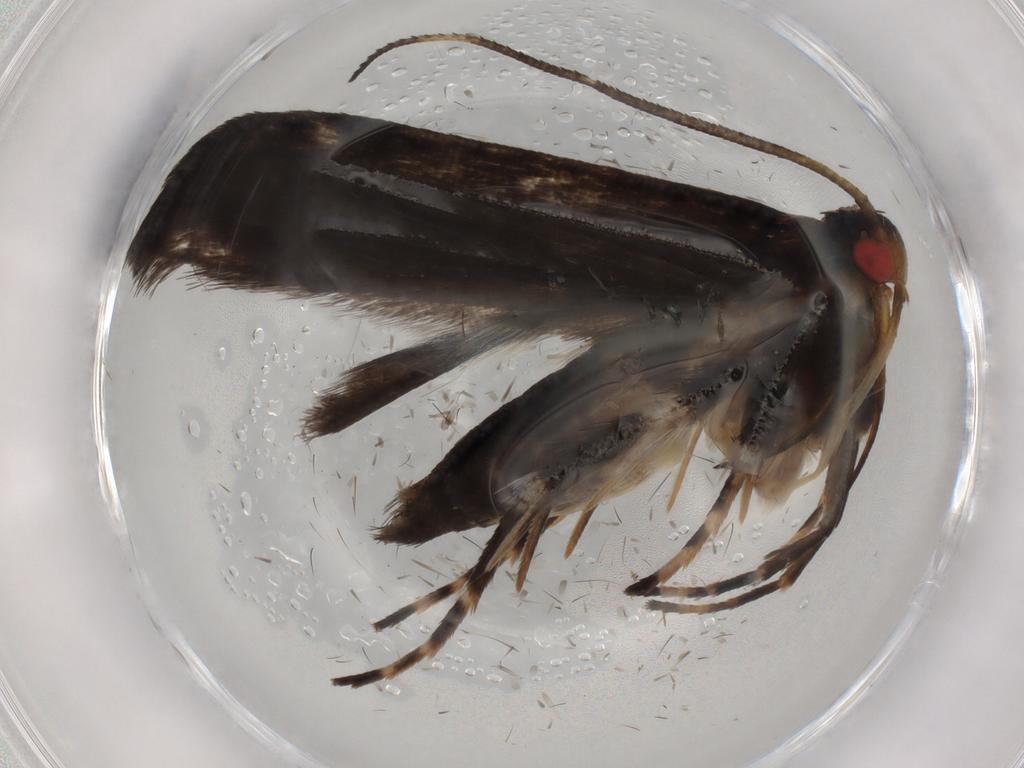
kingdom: Animalia
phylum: Arthropoda
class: Insecta
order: Lepidoptera
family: Gelechiidae
